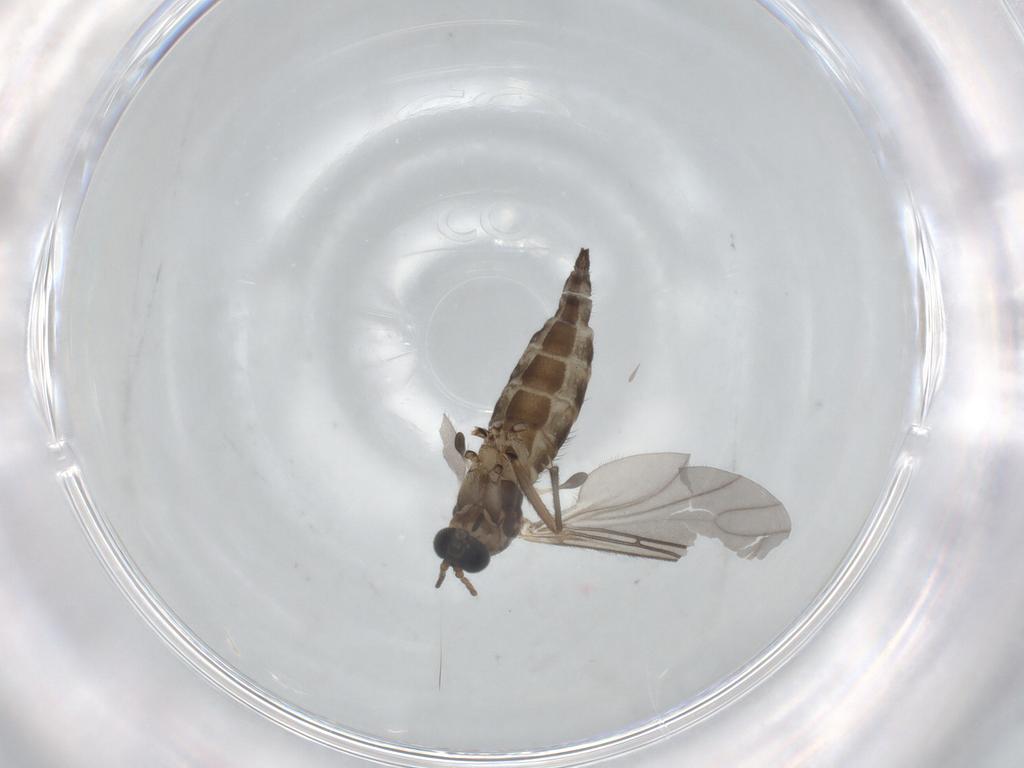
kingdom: Animalia
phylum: Arthropoda
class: Insecta
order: Diptera
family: Sciaridae
